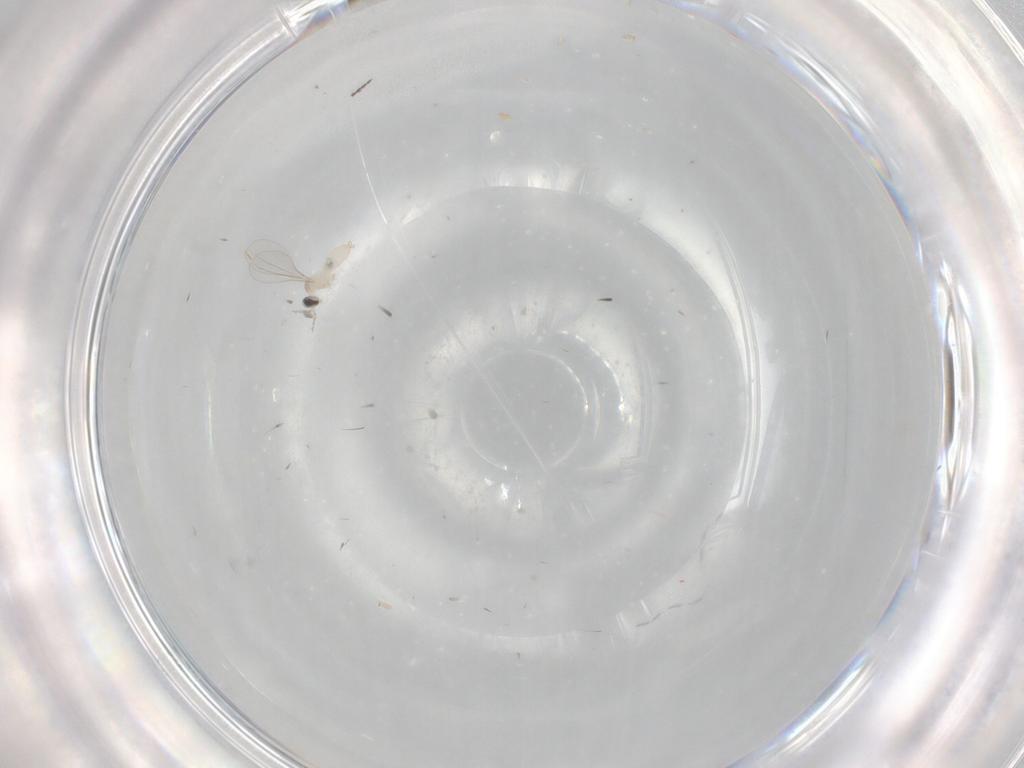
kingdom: Animalia
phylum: Arthropoda
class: Insecta
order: Diptera
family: Cecidomyiidae
